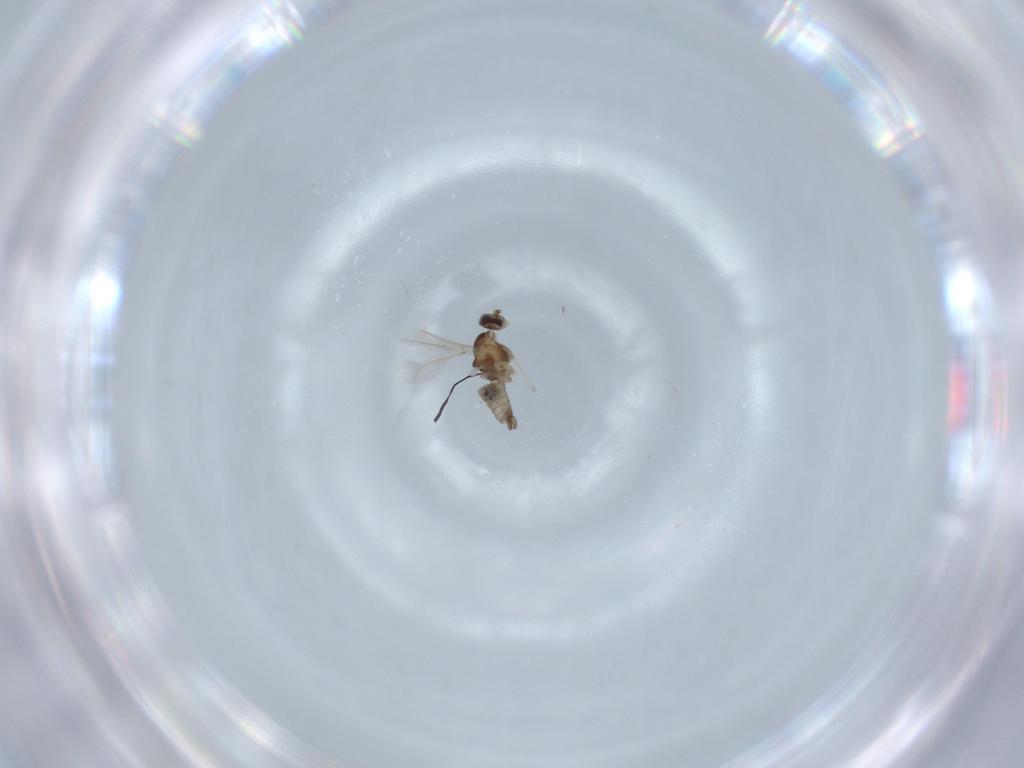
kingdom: Animalia
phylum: Arthropoda
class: Insecta
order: Diptera
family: Cecidomyiidae
